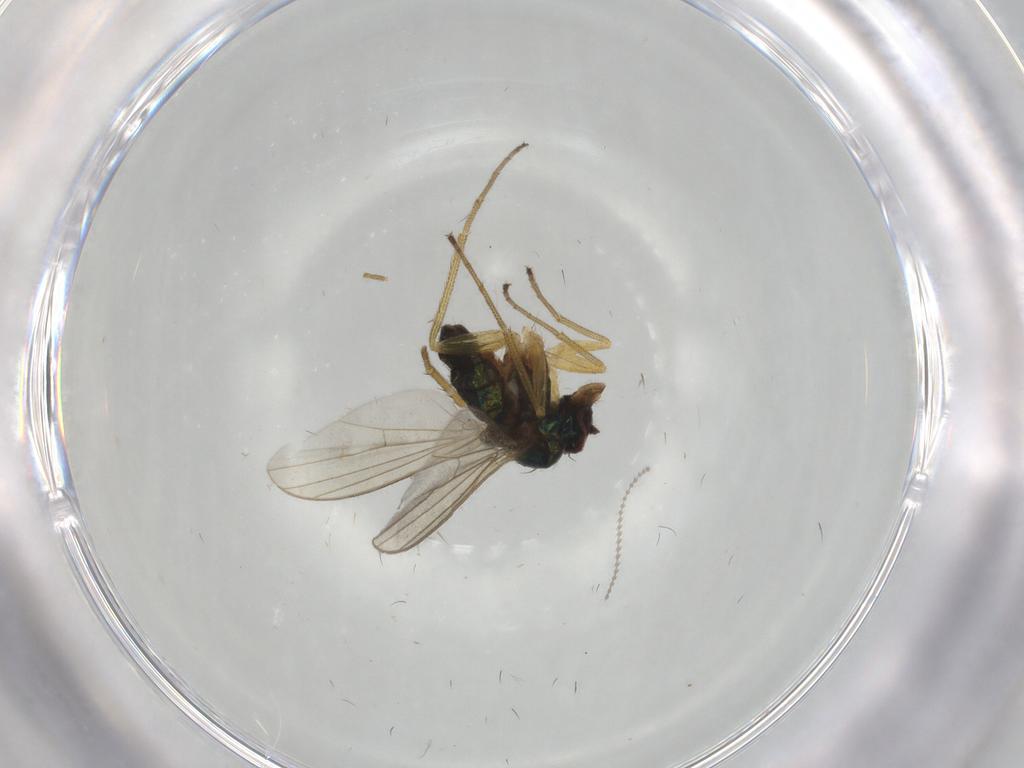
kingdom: Animalia
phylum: Arthropoda
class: Insecta
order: Diptera
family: Dolichopodidae
